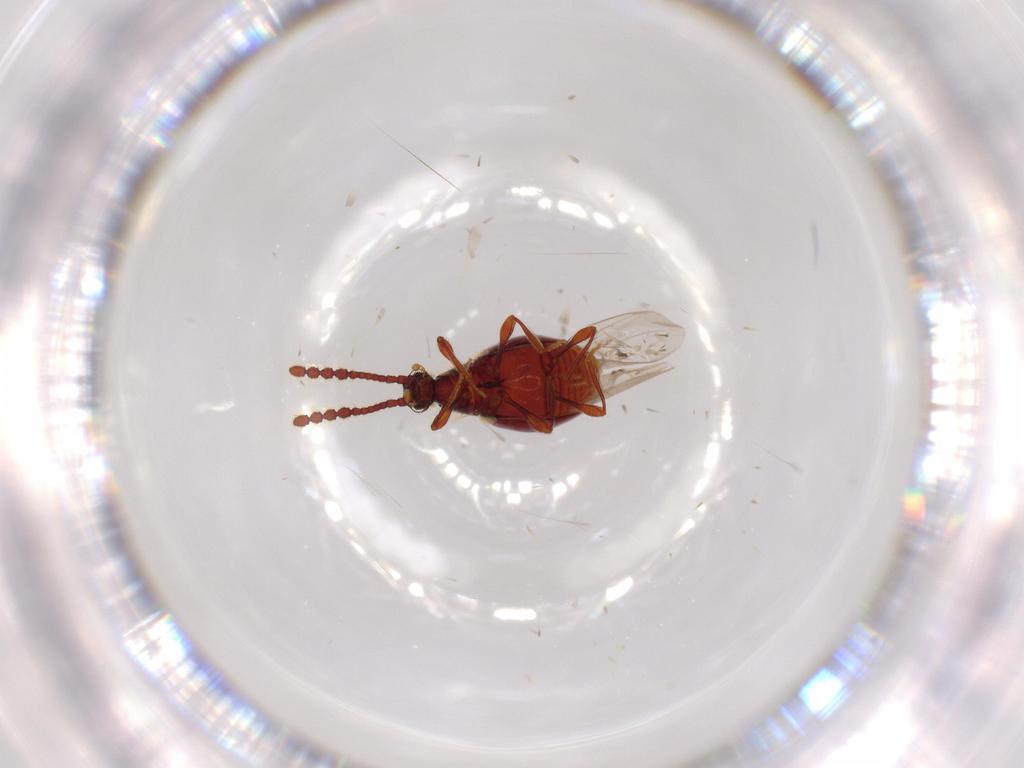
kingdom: Animalia
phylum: Arthropoda
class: Insecta
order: Coleoptera
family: Staphylinidae
